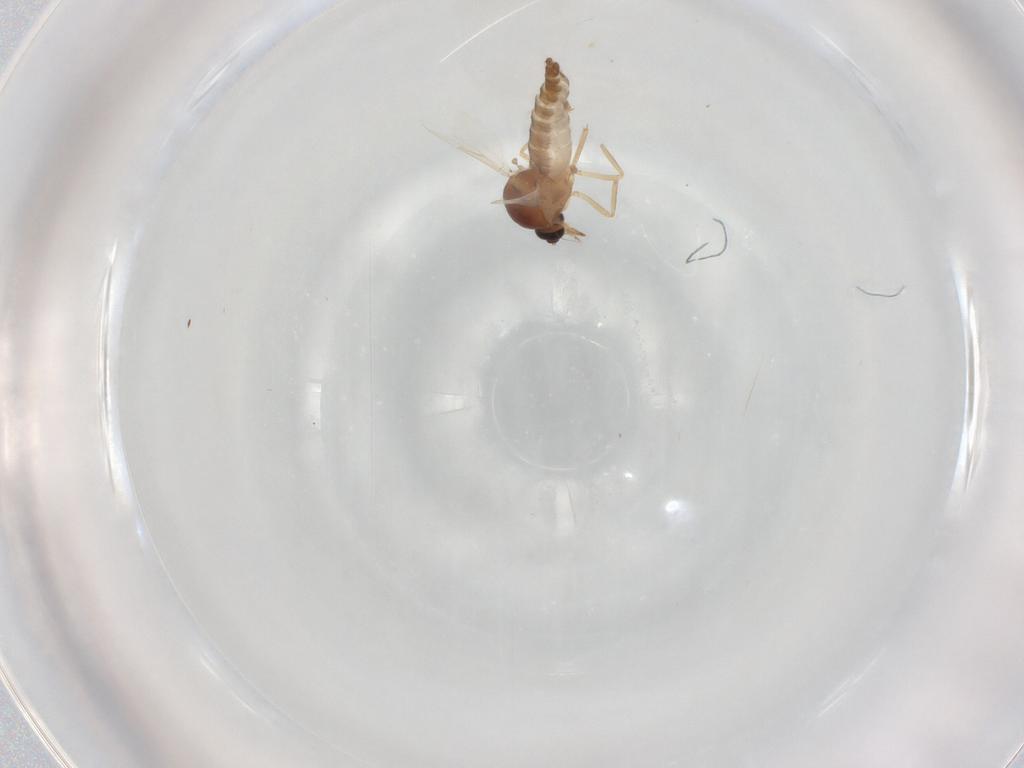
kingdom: Animalia
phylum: Arthropoda
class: Insecta
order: Diptera
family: Ceratopogonidae
